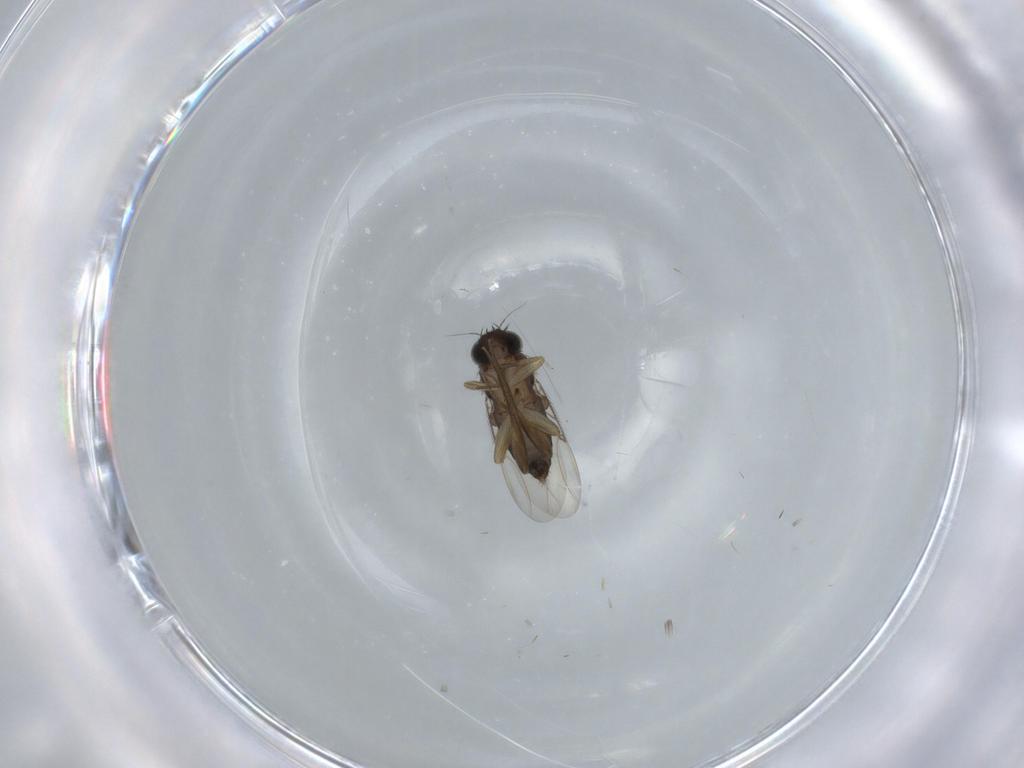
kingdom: Animalia
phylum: Arthropoda
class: Insecta
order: Diptera
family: Phoridae
